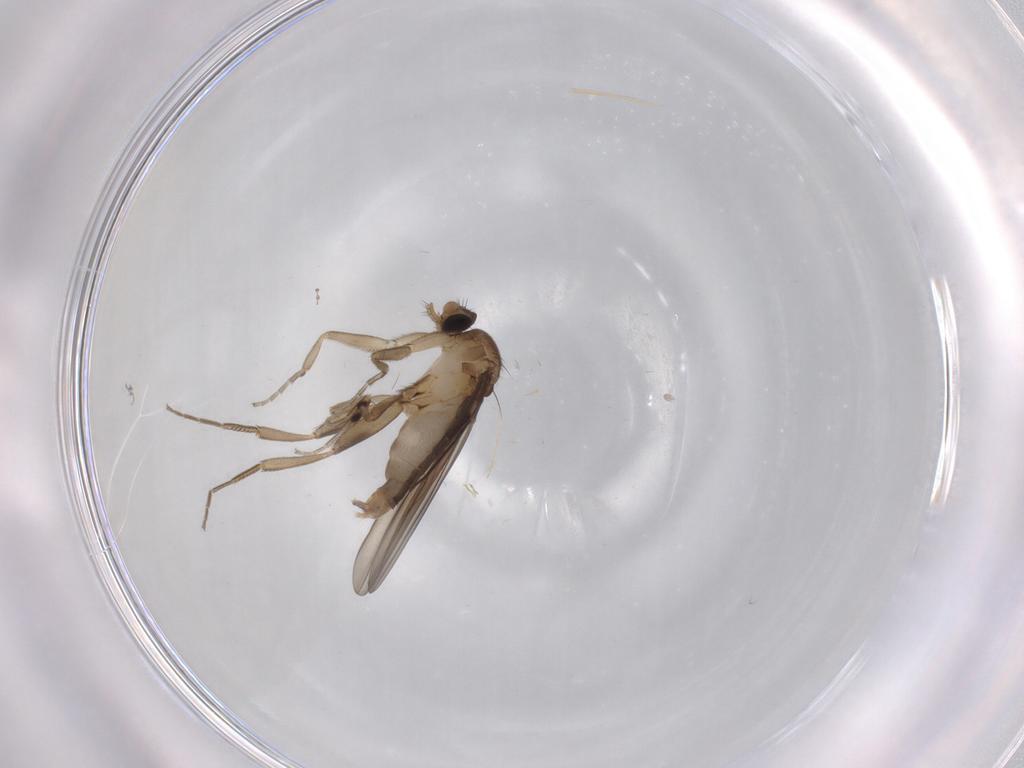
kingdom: Animalia
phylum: Arthropoda
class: Insecta
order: Diptera
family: Phoridae
